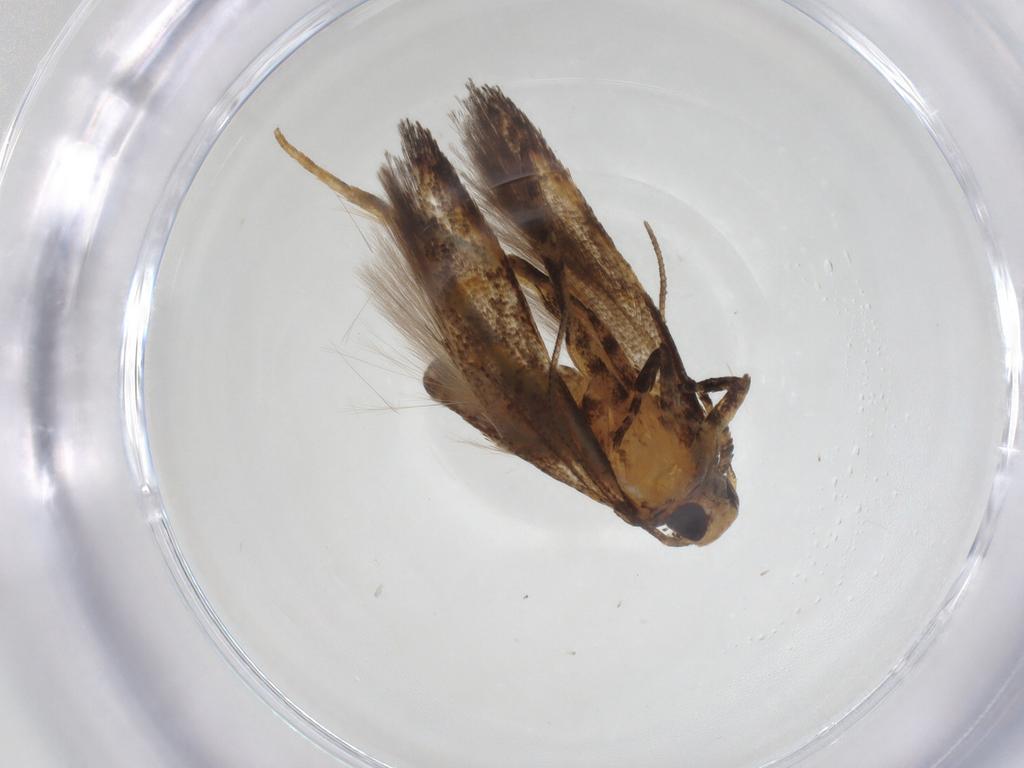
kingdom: Animalia
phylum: Arthropoda
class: Insecta
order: Lepidoptera
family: Gelechiidae
